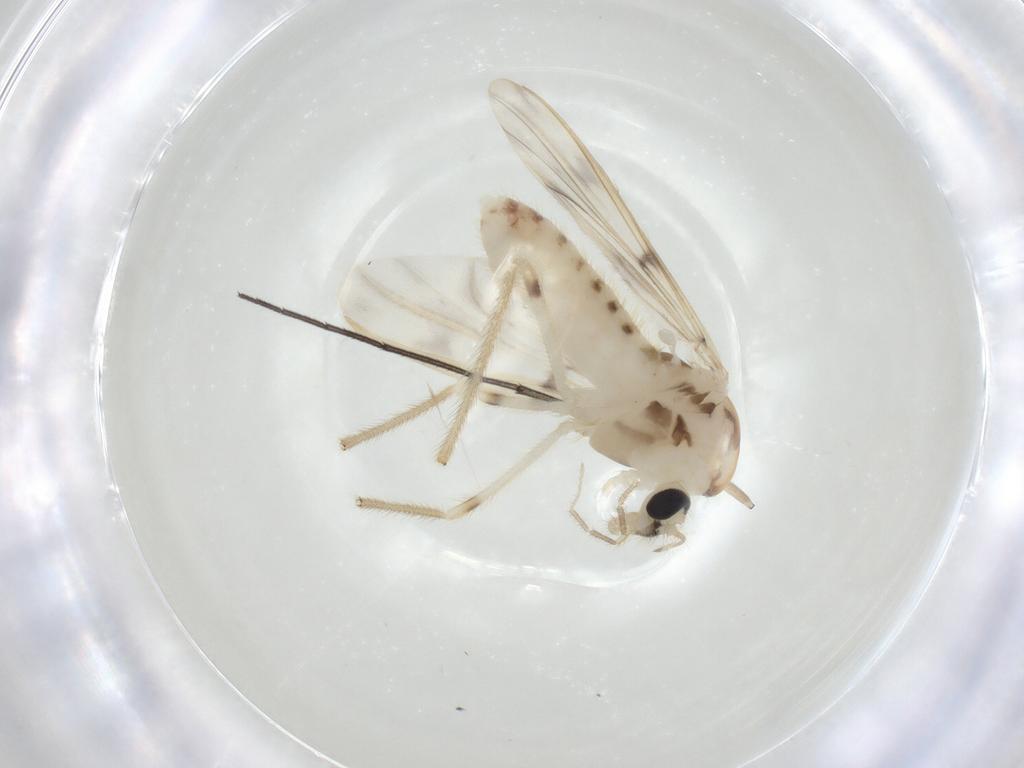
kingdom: Animalia
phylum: Arthropoda
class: Insecta
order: Diptera
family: Chironomidae
